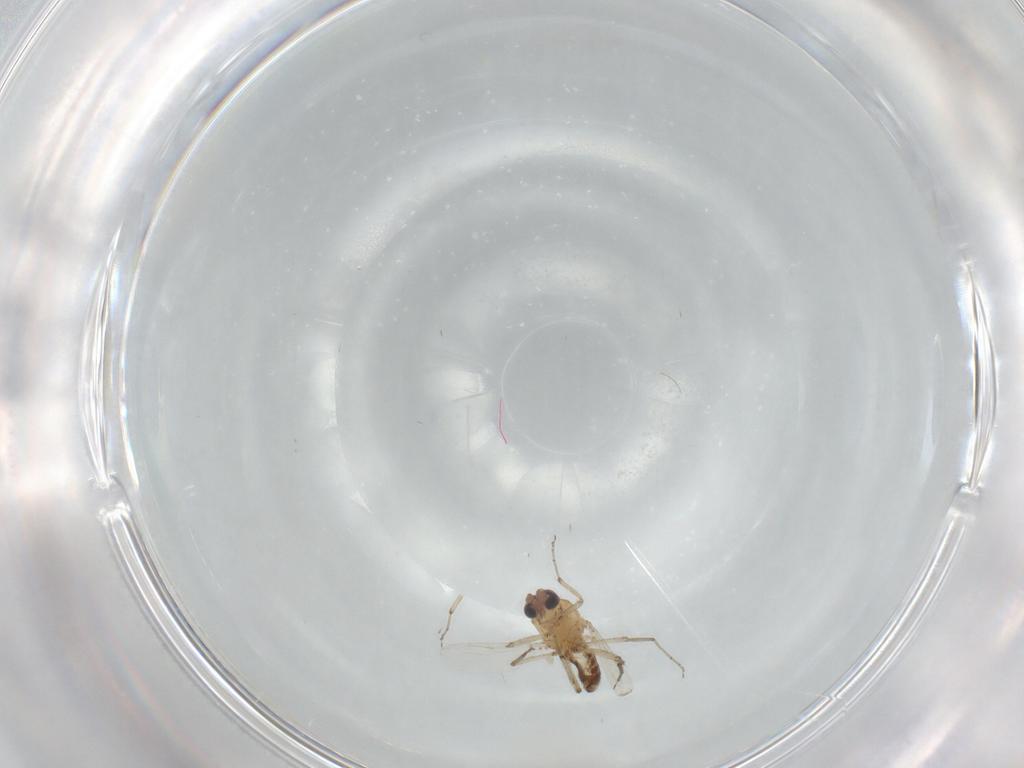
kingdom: Animalia
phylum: Arthropoda
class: Insecta
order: Diptera
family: Ceratopogonidae
